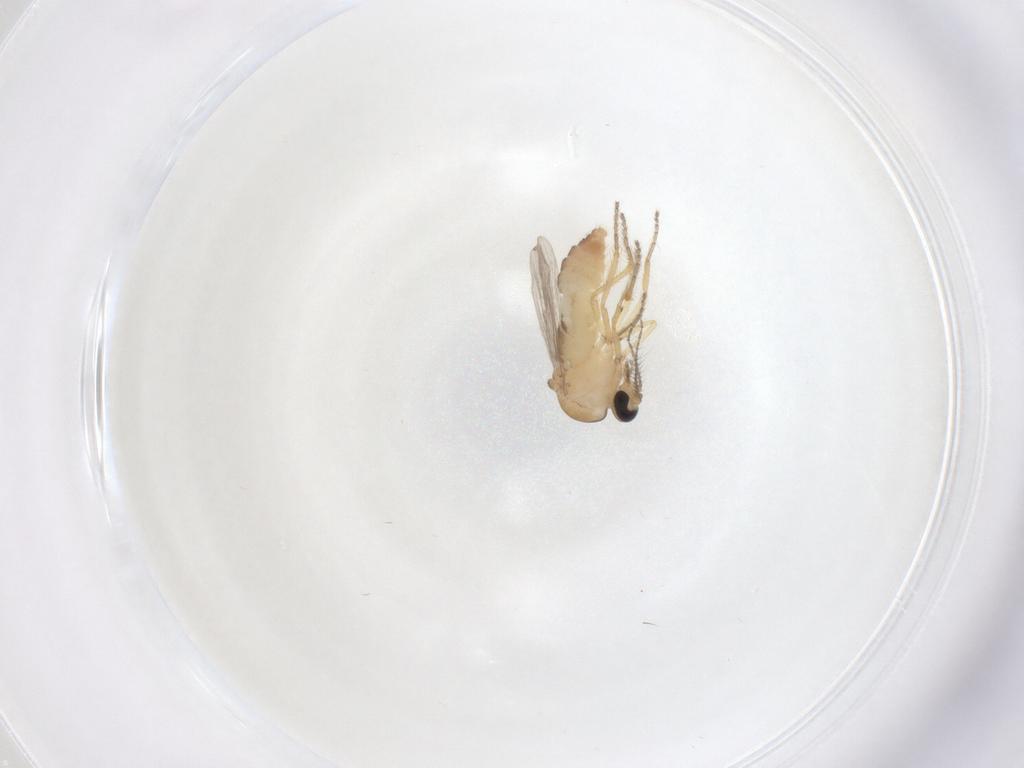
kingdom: Animalia
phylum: Arthropoda
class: Insecta
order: Diptera
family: Ceratopogonidae
